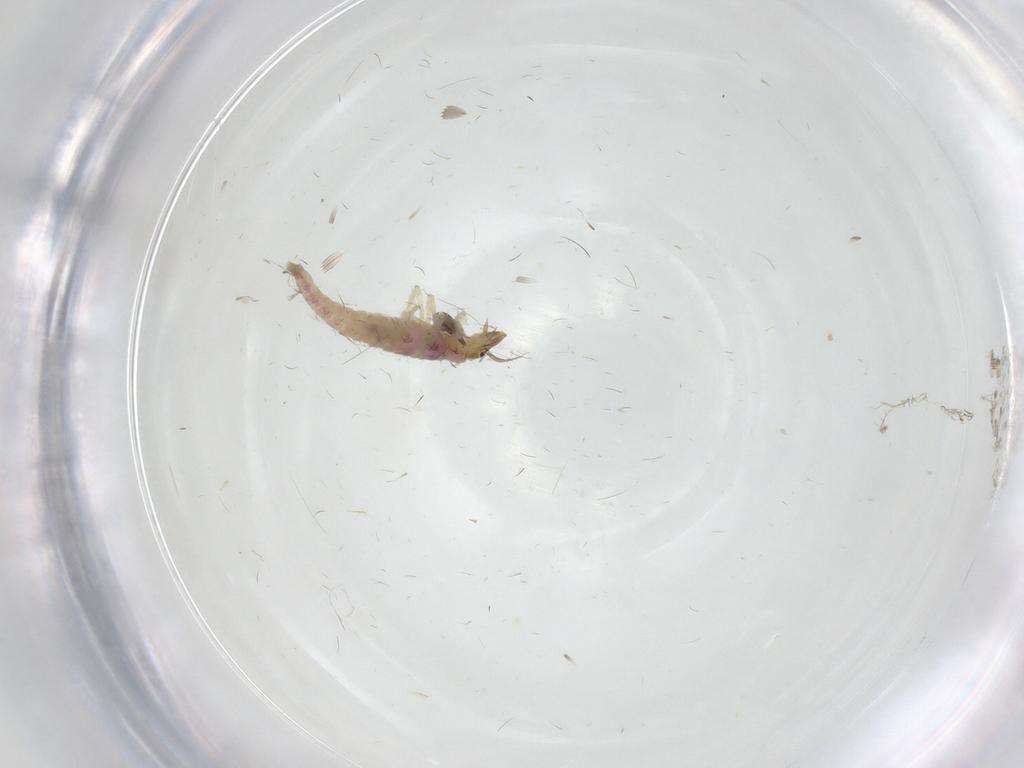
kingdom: Animalia
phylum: Arthropoda
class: Insecta
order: Neuroptera
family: Hemerobiidae
